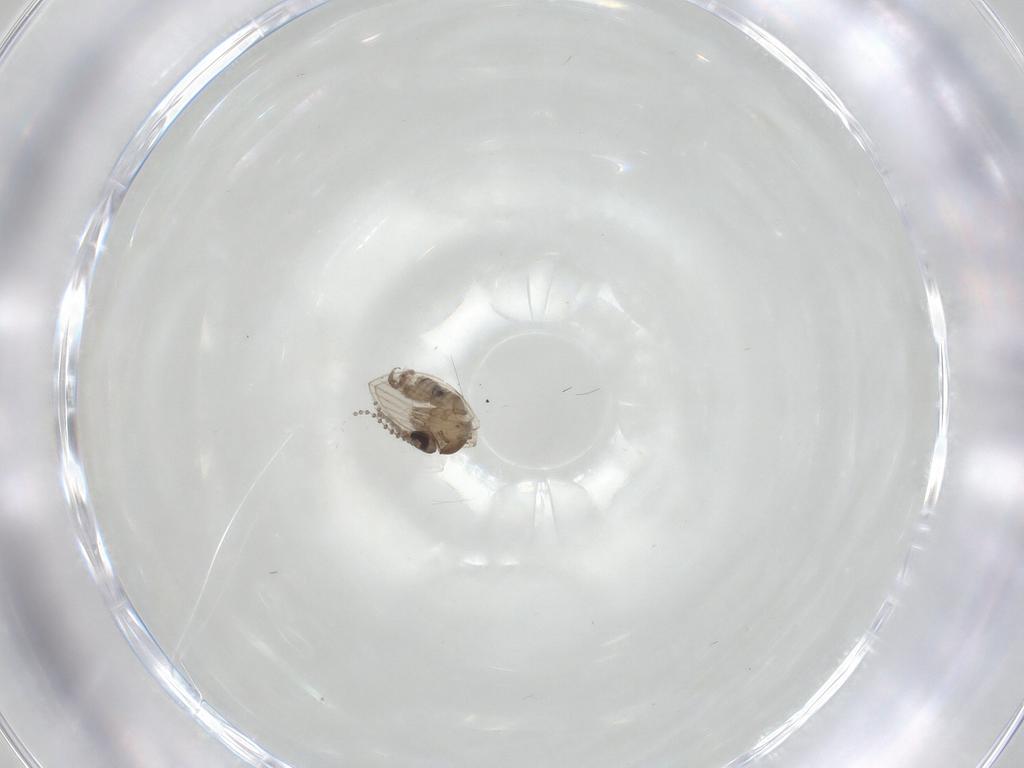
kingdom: Animalia
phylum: Arthropoda
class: Insecta
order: Diptera
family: Psychodidae
